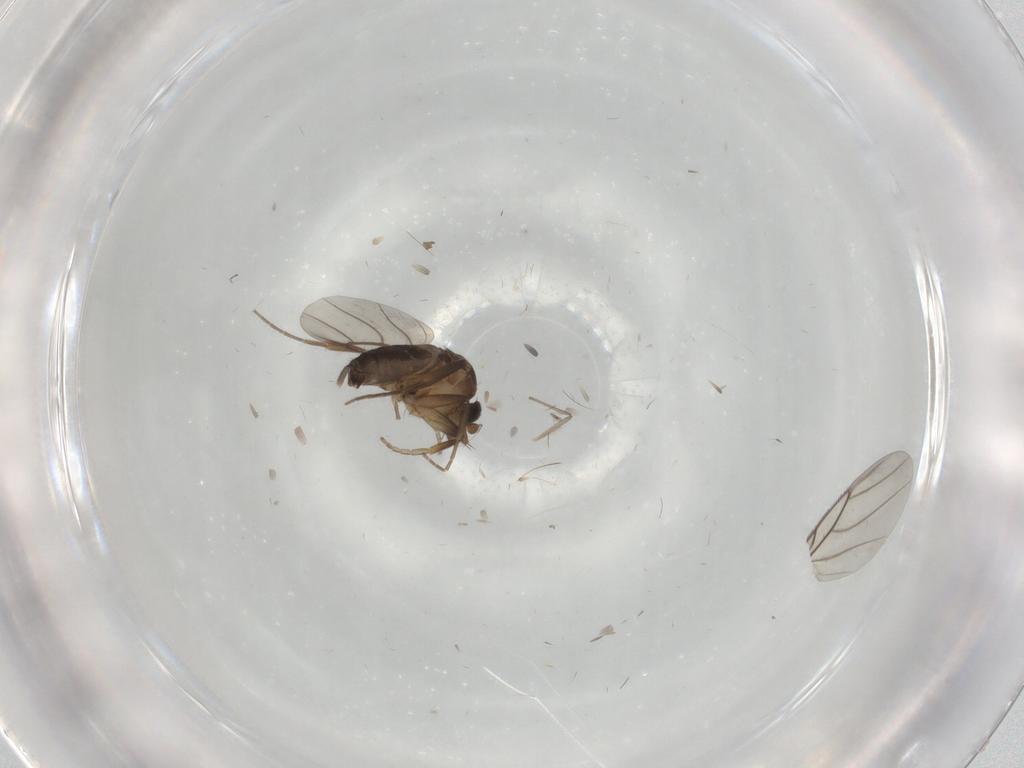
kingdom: Animalia
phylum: Arthropoda
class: Insecta
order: Diptera
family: Phoridae
